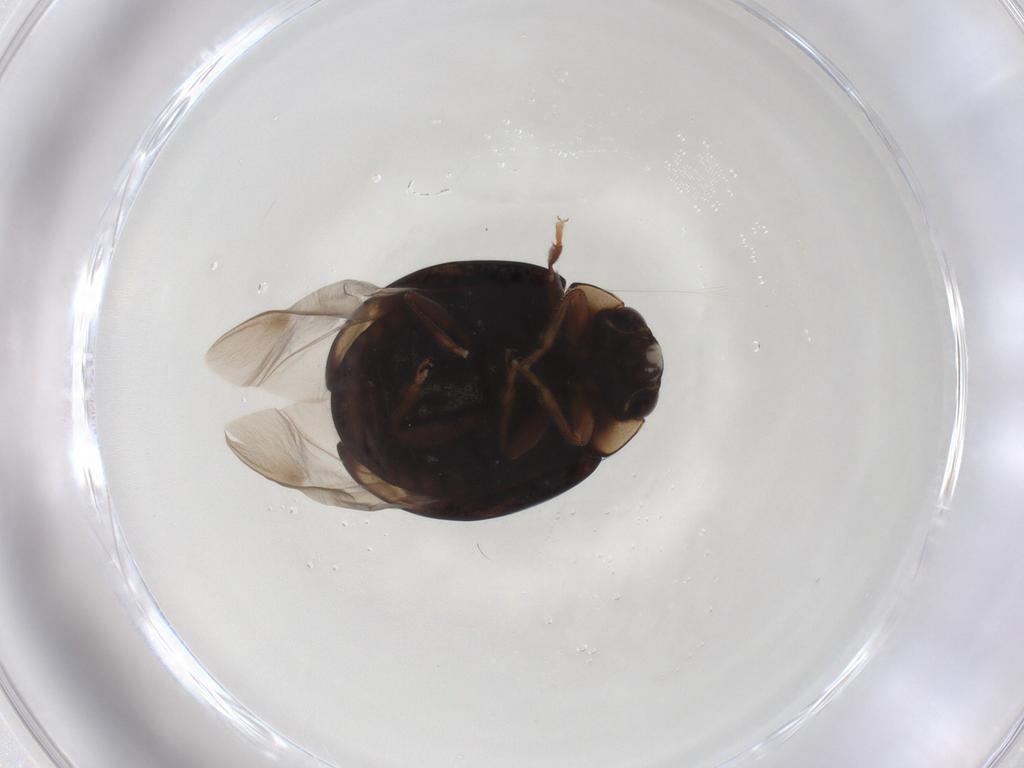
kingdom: Animalia
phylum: Arthropoda
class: Insecta
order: Coleoptera
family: Coccinellidae
